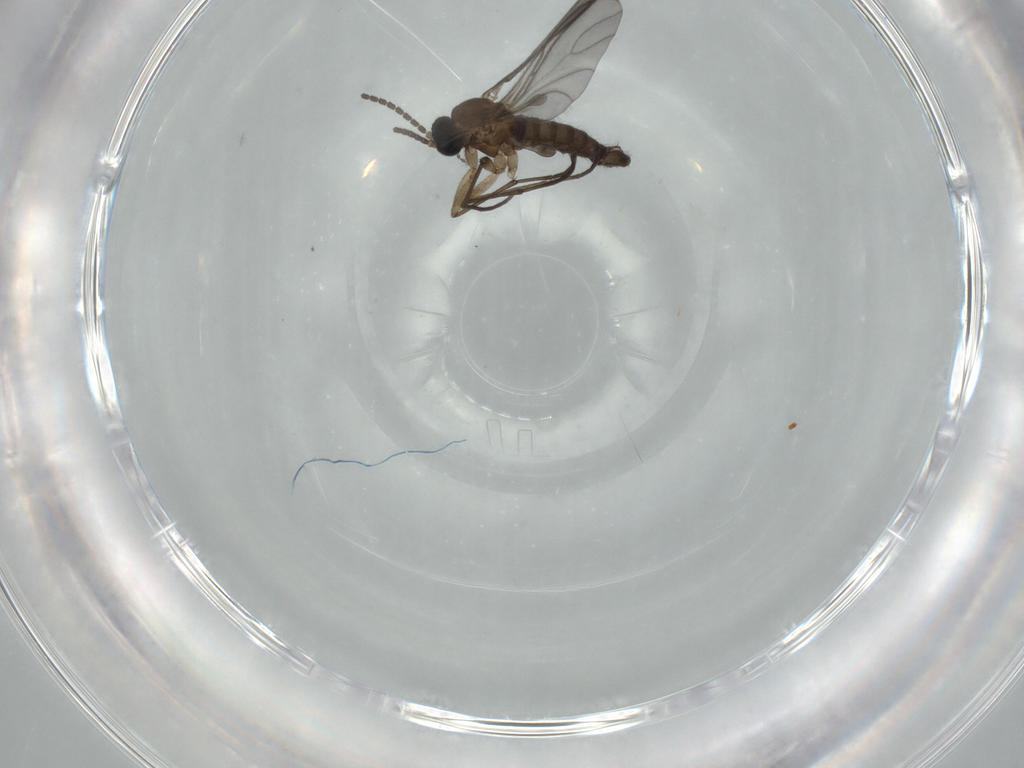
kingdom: Animalia
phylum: Arthropoda
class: Insecta
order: Diptera
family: Sciaridae
